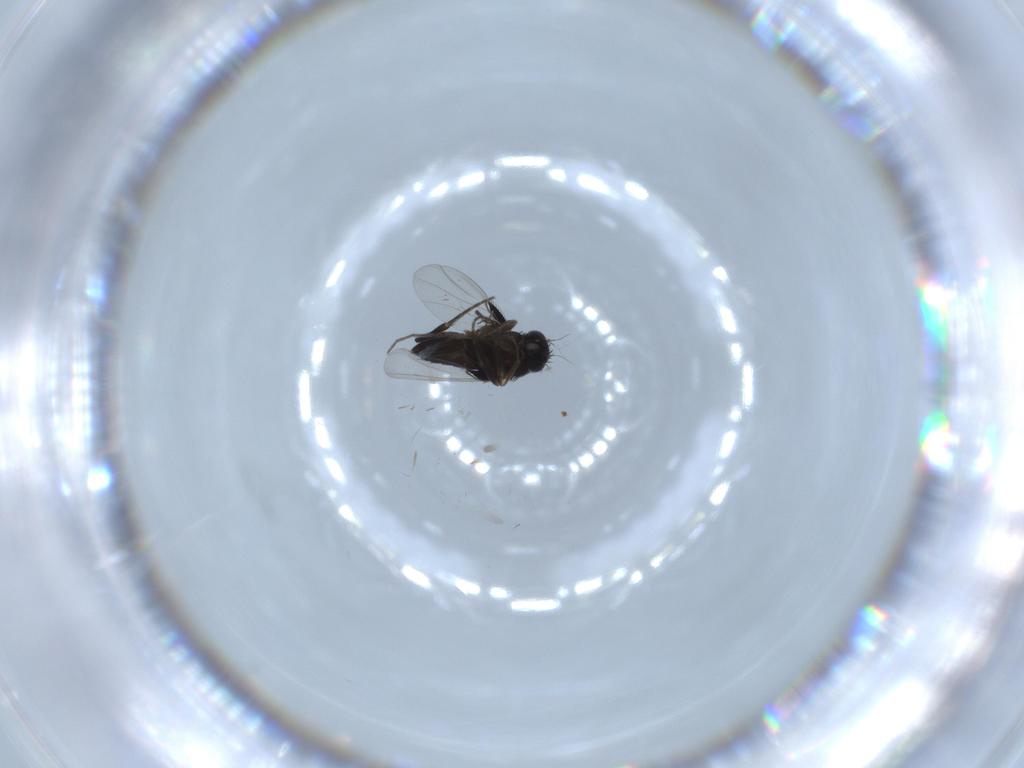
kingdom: Animalia
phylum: Arthropoda
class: Insecta
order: Diptera
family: Phoridae
